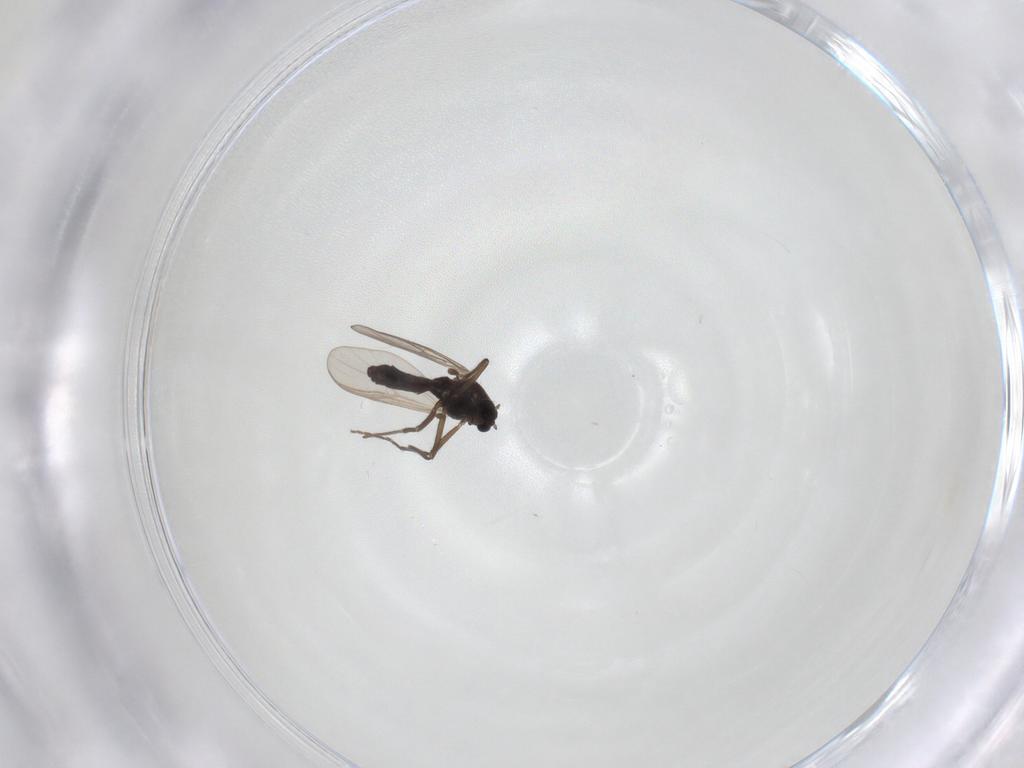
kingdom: Animalia
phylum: Arthropoda
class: Insecta
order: Diptera
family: Chironomidae
